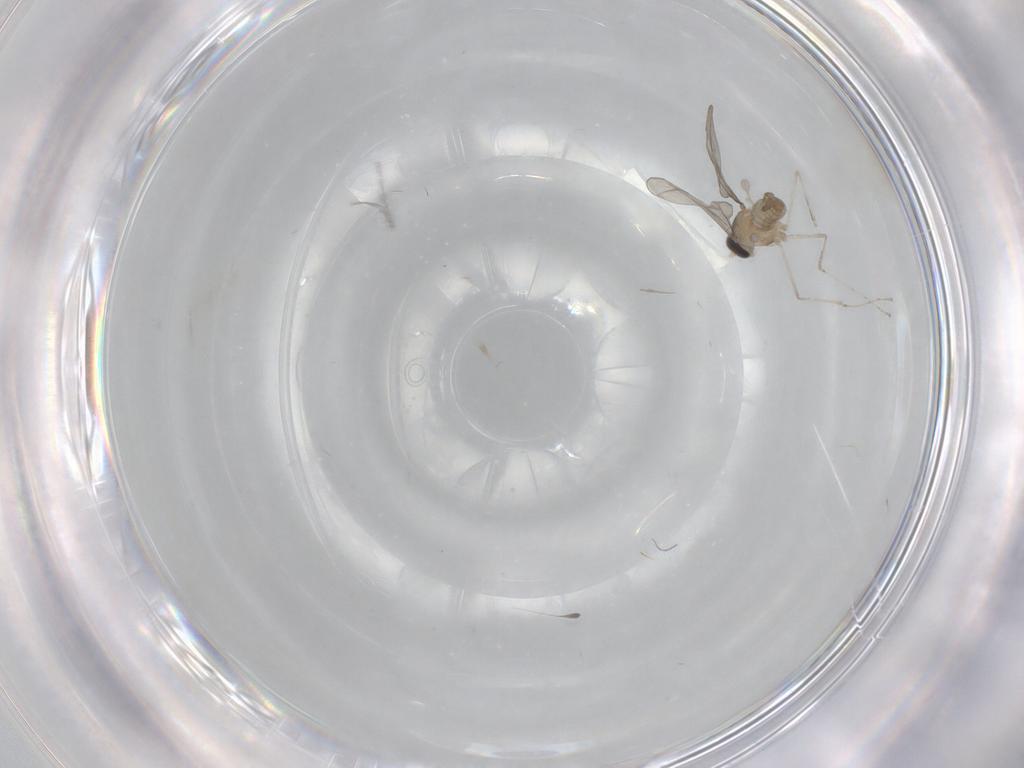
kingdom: Animalia
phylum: Arthropoda
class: Insecta
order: Diptera
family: Cecidomyiidae
